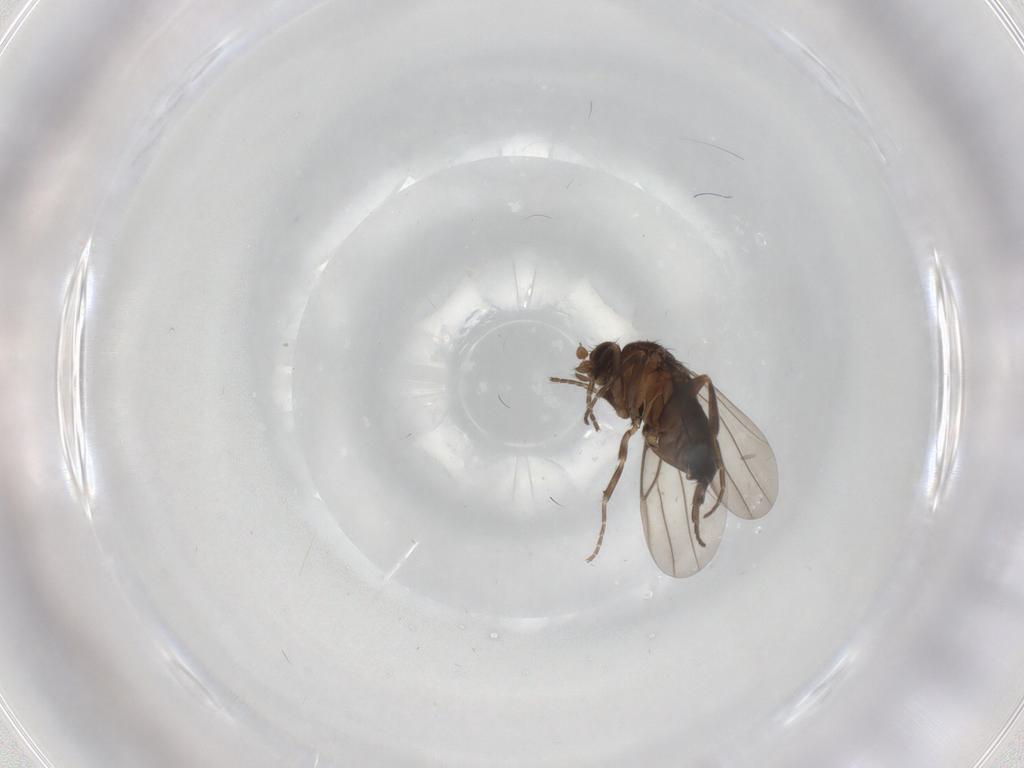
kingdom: Animalia
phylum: Arthropoda
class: Insecta
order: Diptera
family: Phoridae
